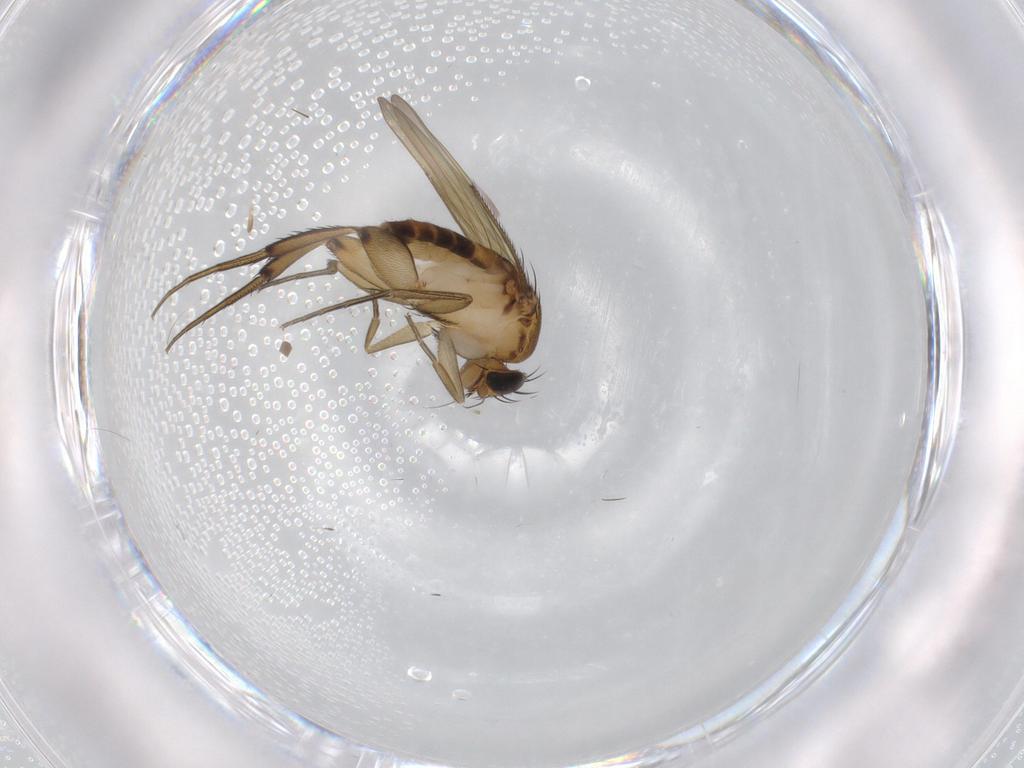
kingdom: Animalia
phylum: Arthropoda
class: Insecta
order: Diptera
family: Phoridae
